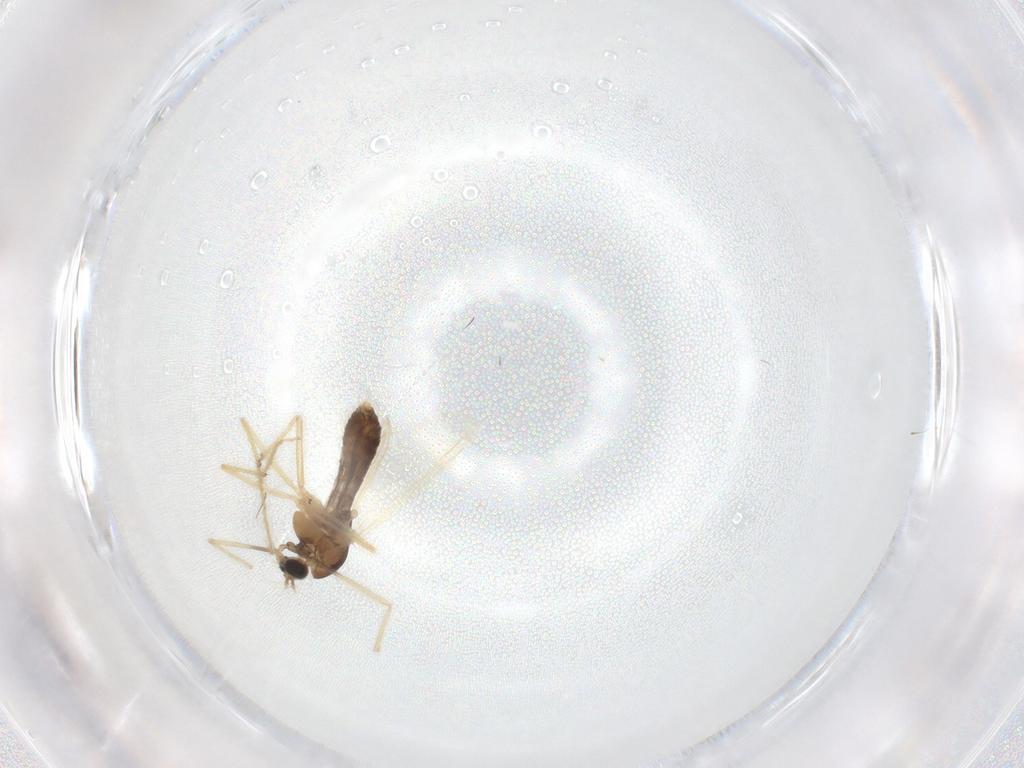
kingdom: Animalia
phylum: Arthropoda
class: Insecta
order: Diptera
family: Chironomidae
